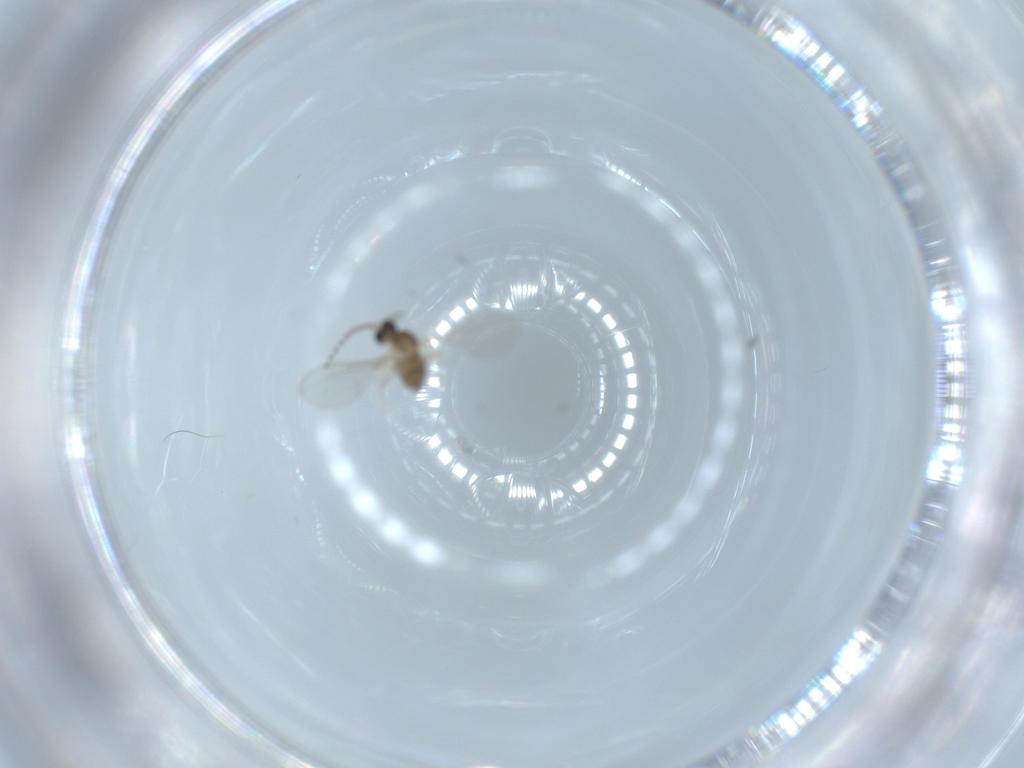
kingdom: Animalia
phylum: Arthropoda
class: Insecta
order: Diptera
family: Cecidomyiidae
